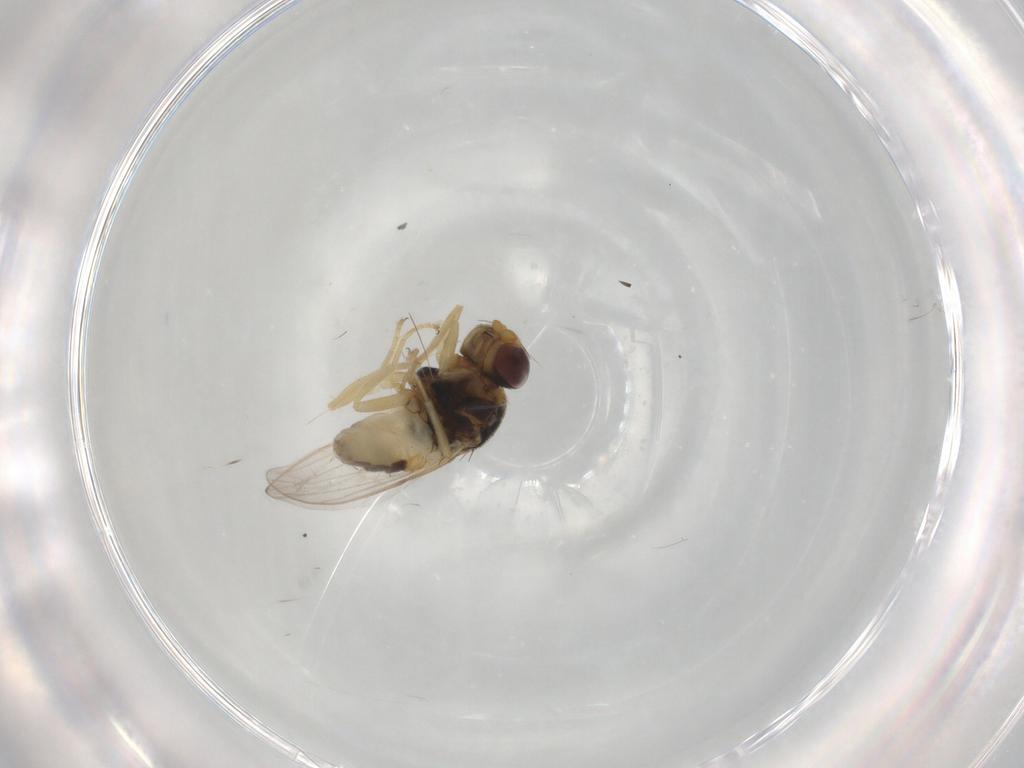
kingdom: Animalia
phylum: Arthropoda
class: Insecta
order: Diptera
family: Chloropidae
